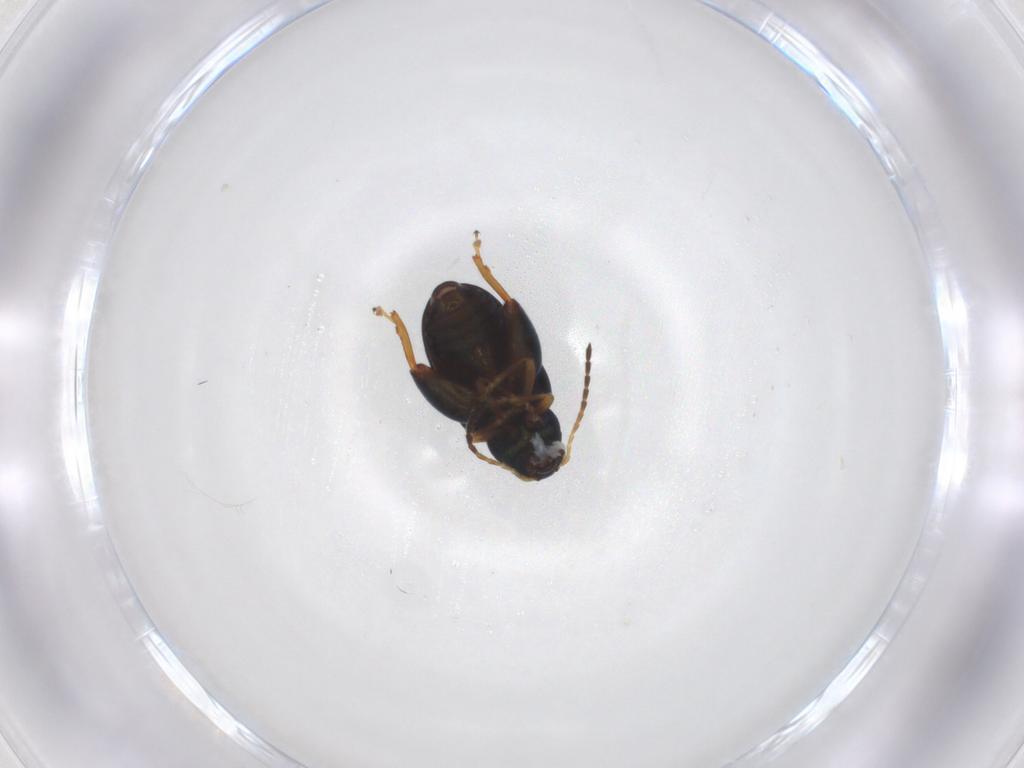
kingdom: Animalia
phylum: Arthropoda
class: Insecta
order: Coleoptera
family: Chrysomelidae
